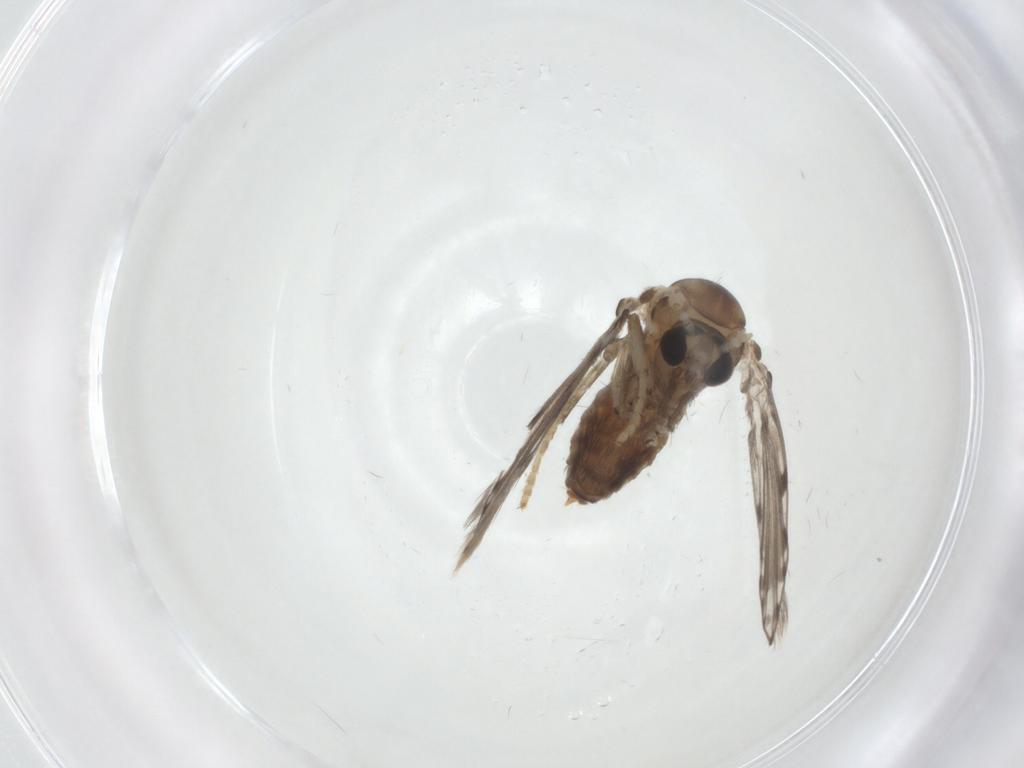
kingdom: Animalia
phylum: Arthropoda
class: Insecta
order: Diptera
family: Psychodidae
